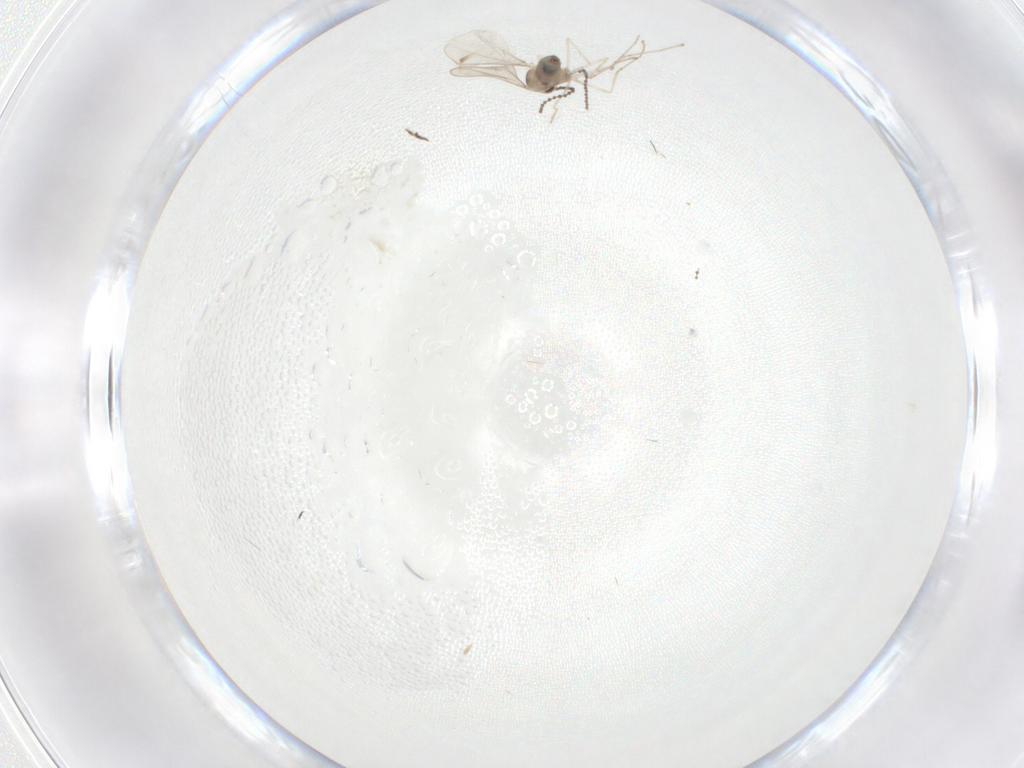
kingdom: Animalia
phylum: Arthropoda
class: Insecta
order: Diptera
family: Cecidomyiidae
